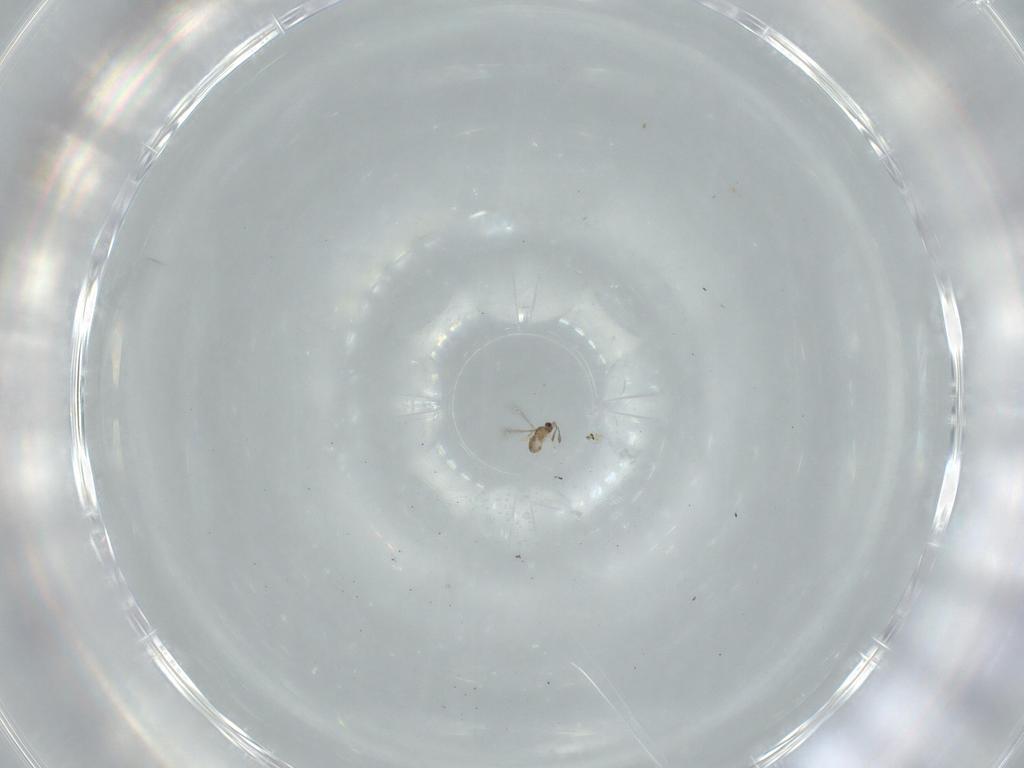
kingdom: Animalia
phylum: Arthropoda
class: Insecta
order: Hymenoptera
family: Mymaridae
